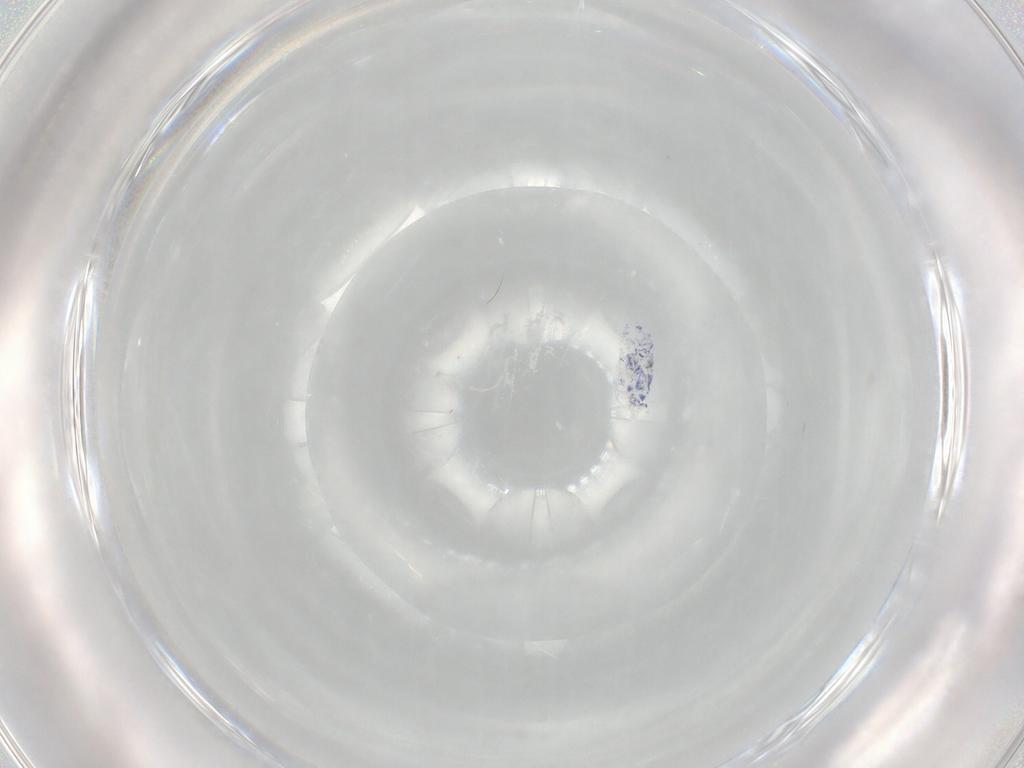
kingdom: Animalia
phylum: Arthropoda
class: Collembola
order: Entomobryomorpha
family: Entomobryidae
